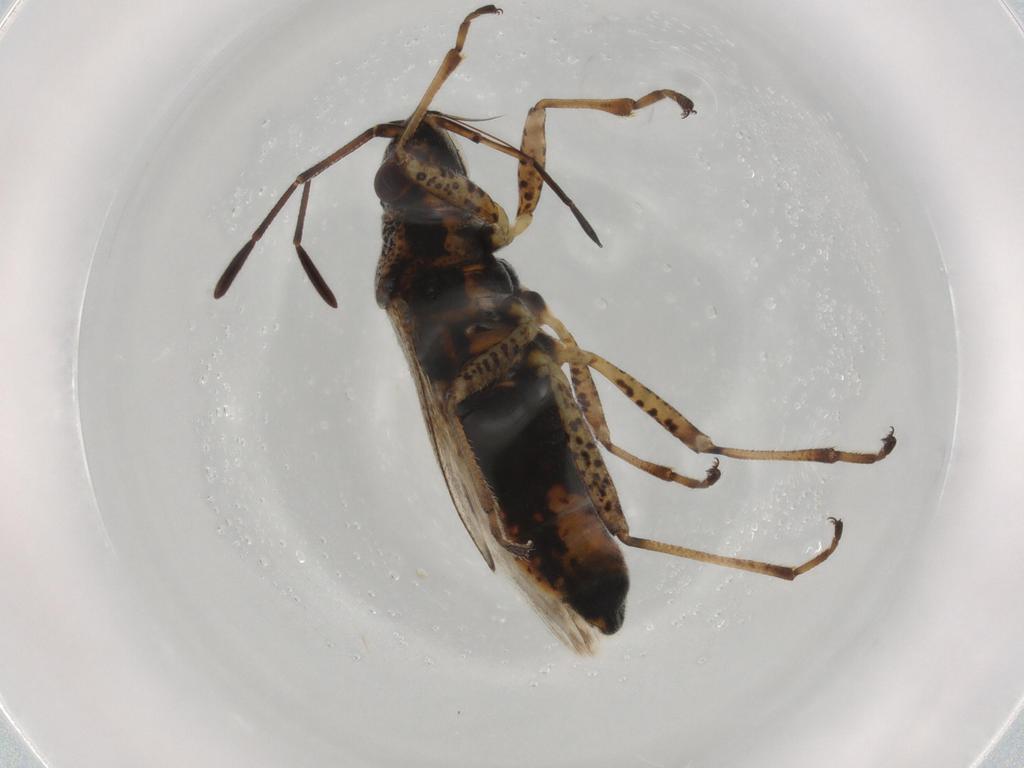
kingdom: Animalia
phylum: Arthropoda
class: Insecta
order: Hemiptera
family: Lygaeidae
